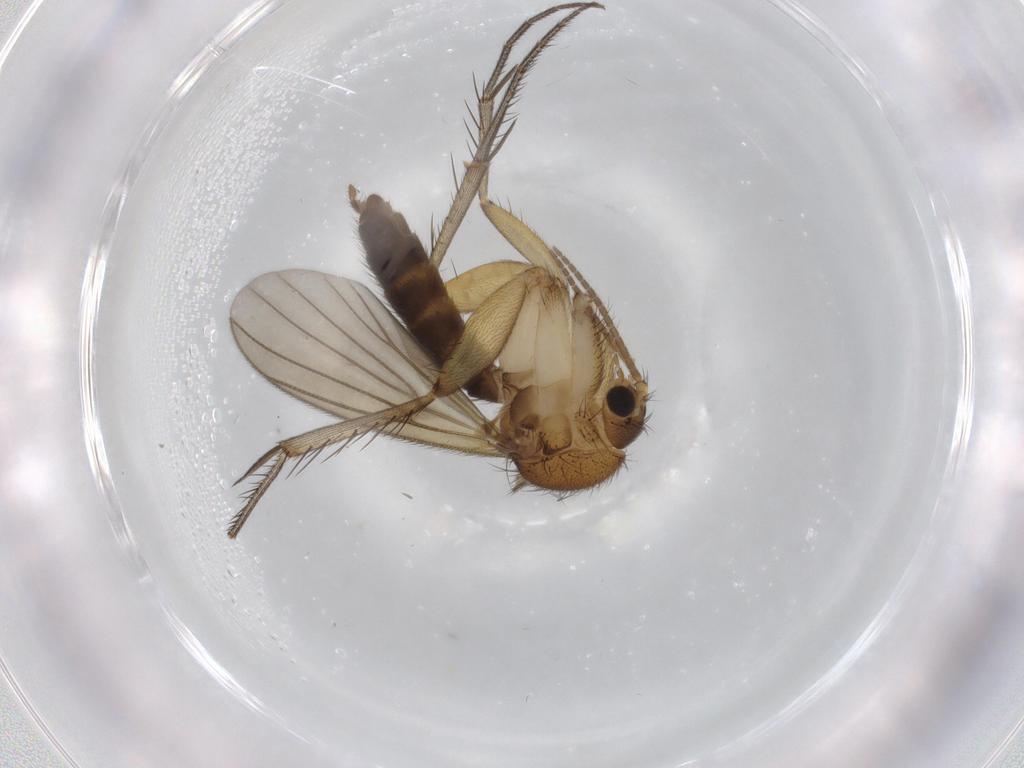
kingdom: Animalia
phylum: Arthropoda
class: Insecta
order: Diptera
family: Mycetophilidae
